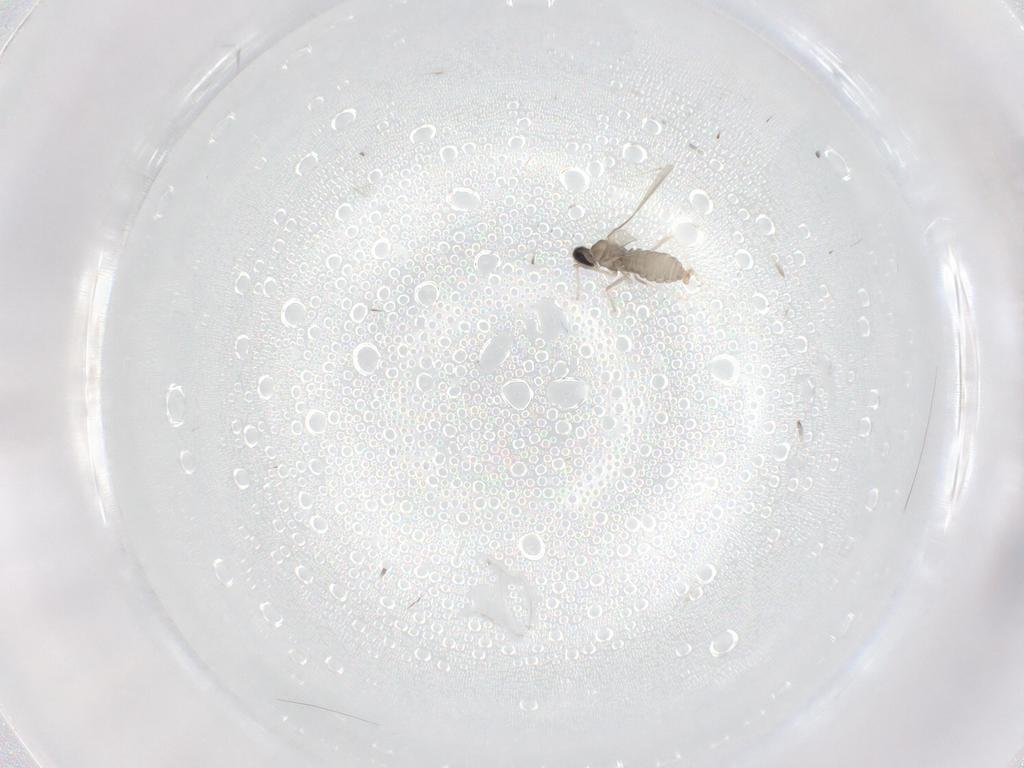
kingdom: Animalia
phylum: Arthropoda
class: Insecta
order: Diptera
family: Cecidomyiidae
